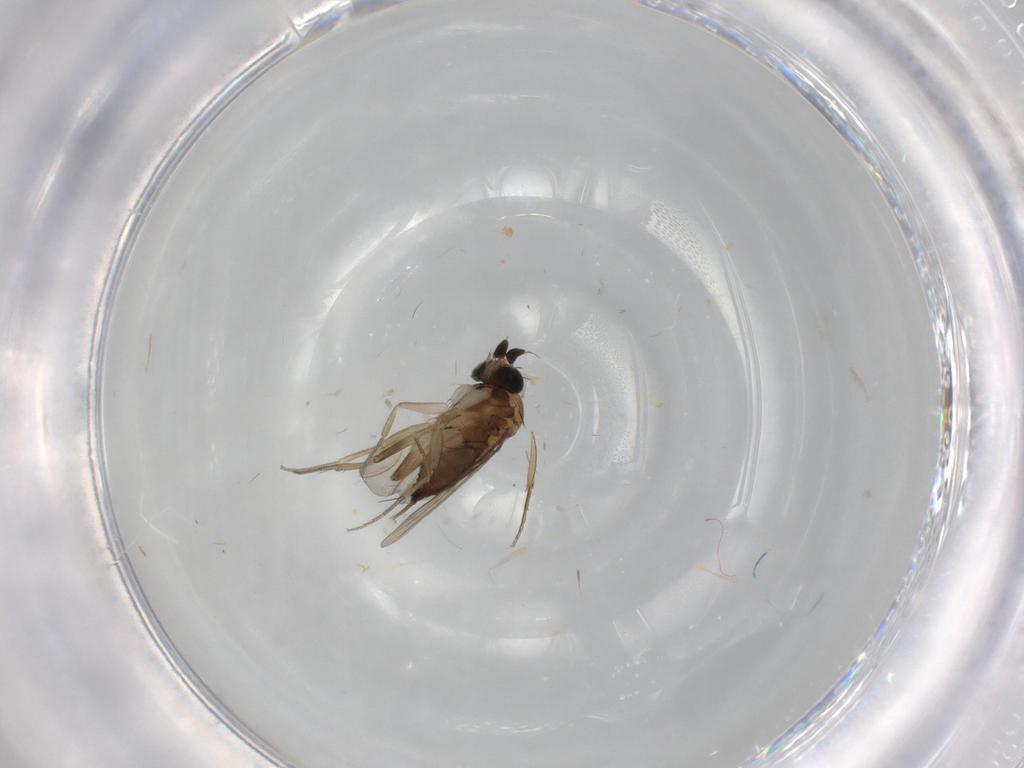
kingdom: Animalia
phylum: Arthropoda
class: Insecta
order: Diptera
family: Phoridae
